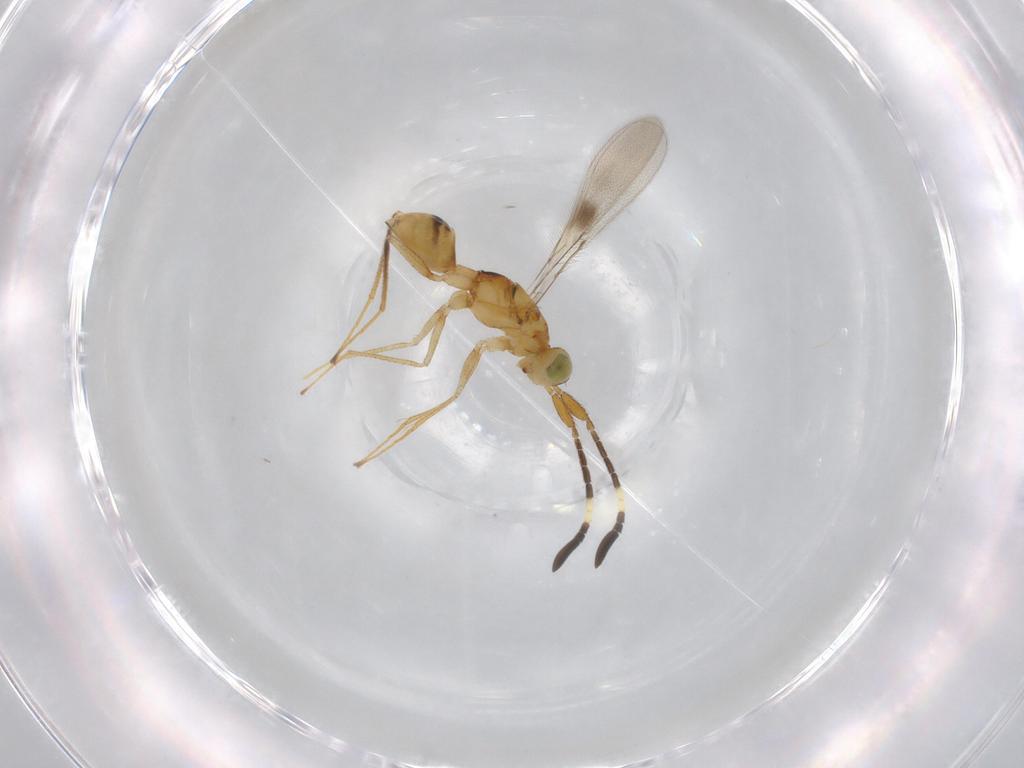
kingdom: Animalia
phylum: Arthropoda
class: Insecta
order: Hymenoptera
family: Mymaridae
